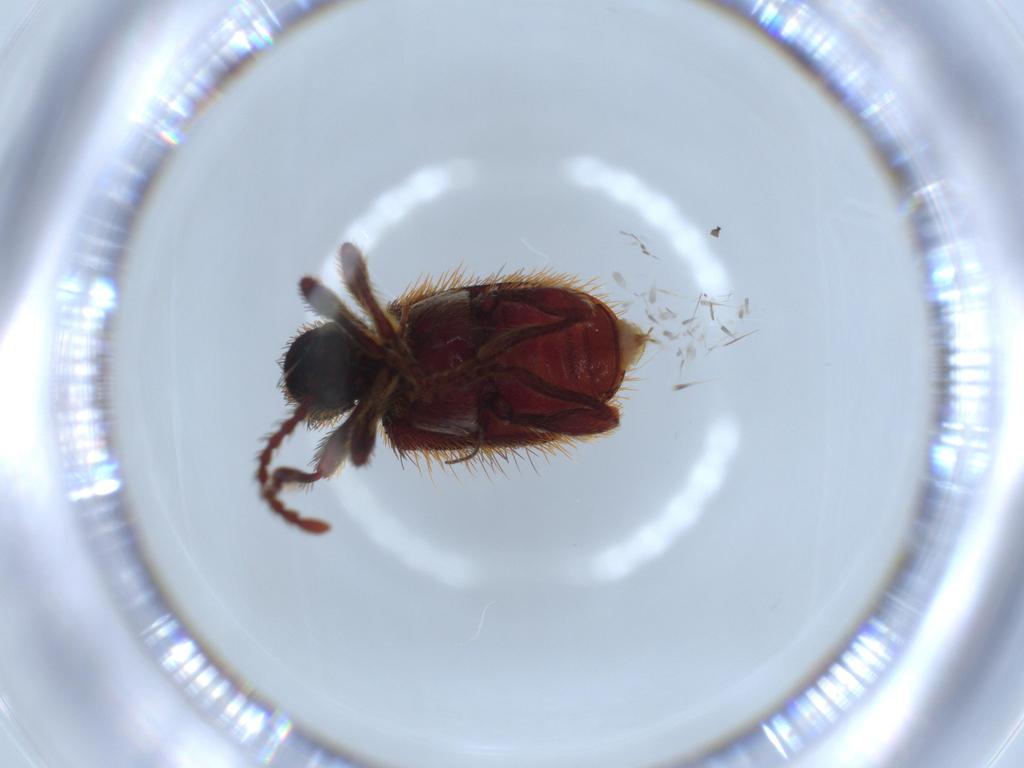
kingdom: Animalia
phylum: Arthropoda
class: Insecta
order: Coleoptera
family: Ptinidae
